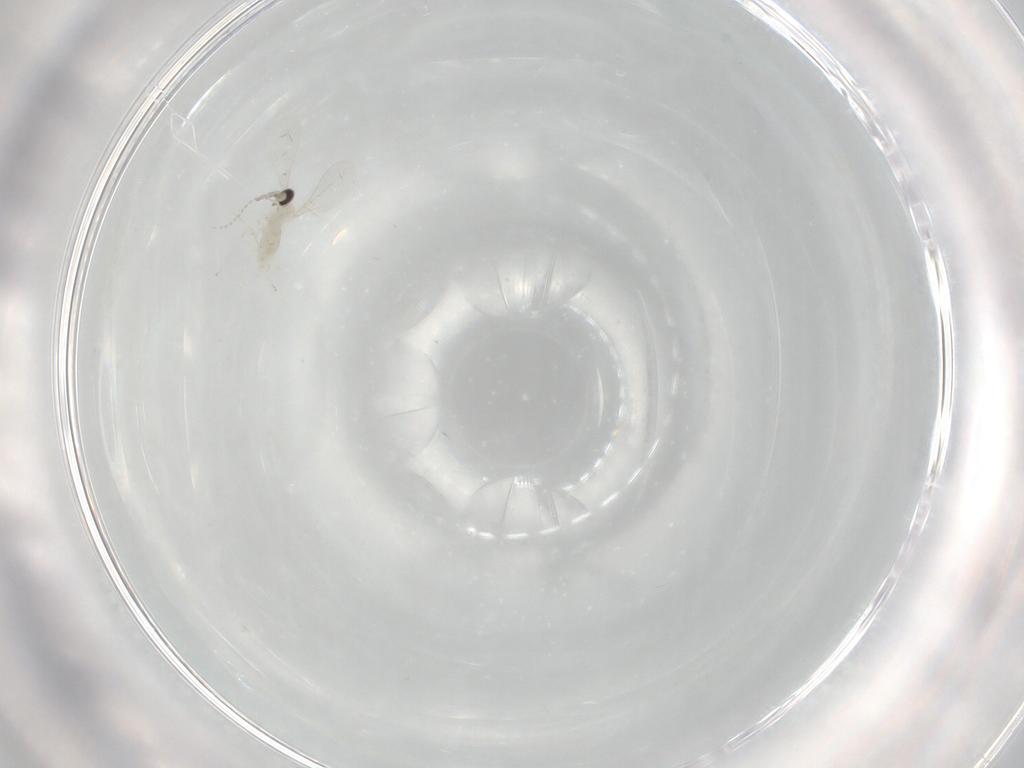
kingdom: Animalia
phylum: Arthropoda
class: Insecta
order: Diptera
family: Cecidomyiidae
